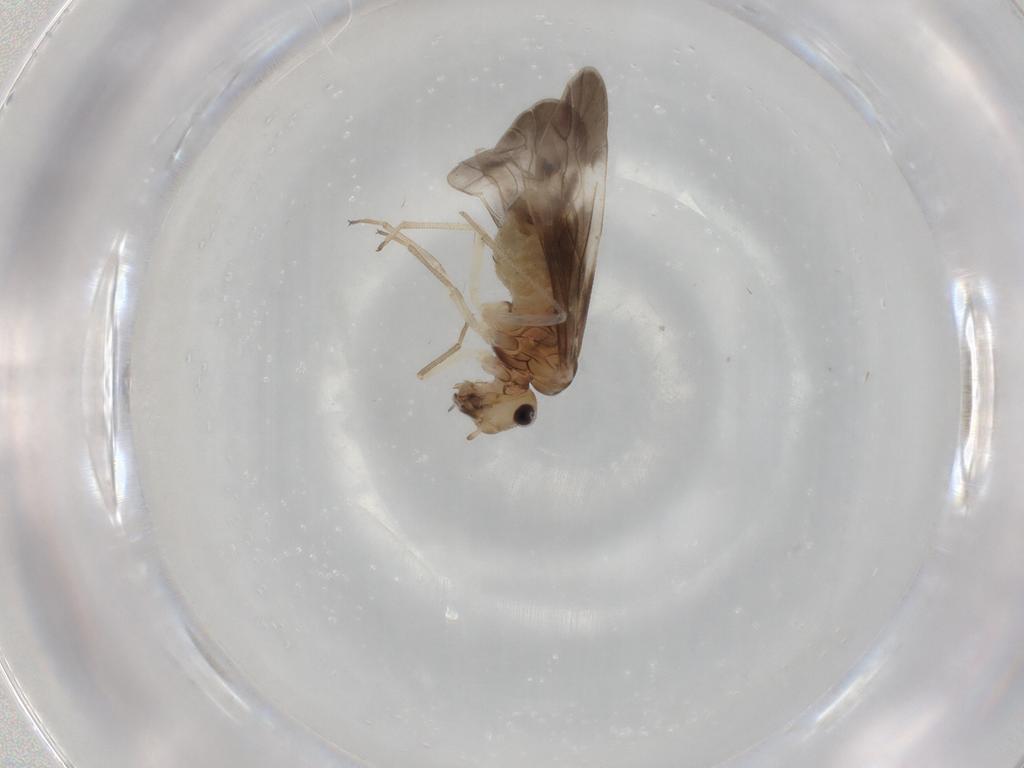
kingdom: Animalia
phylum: Arthropoda
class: Insecta
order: Psocodea
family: Caeciliusidae
